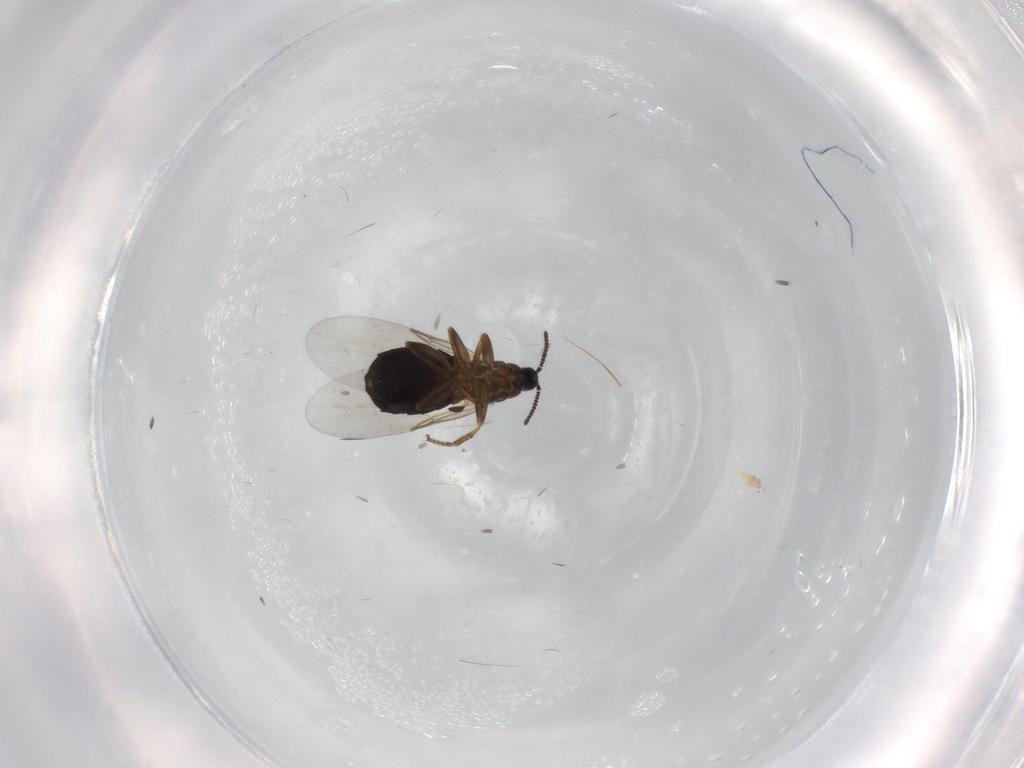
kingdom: Animalia
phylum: Arthropoda
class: Insecta
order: Diptera
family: Scatopsidae
